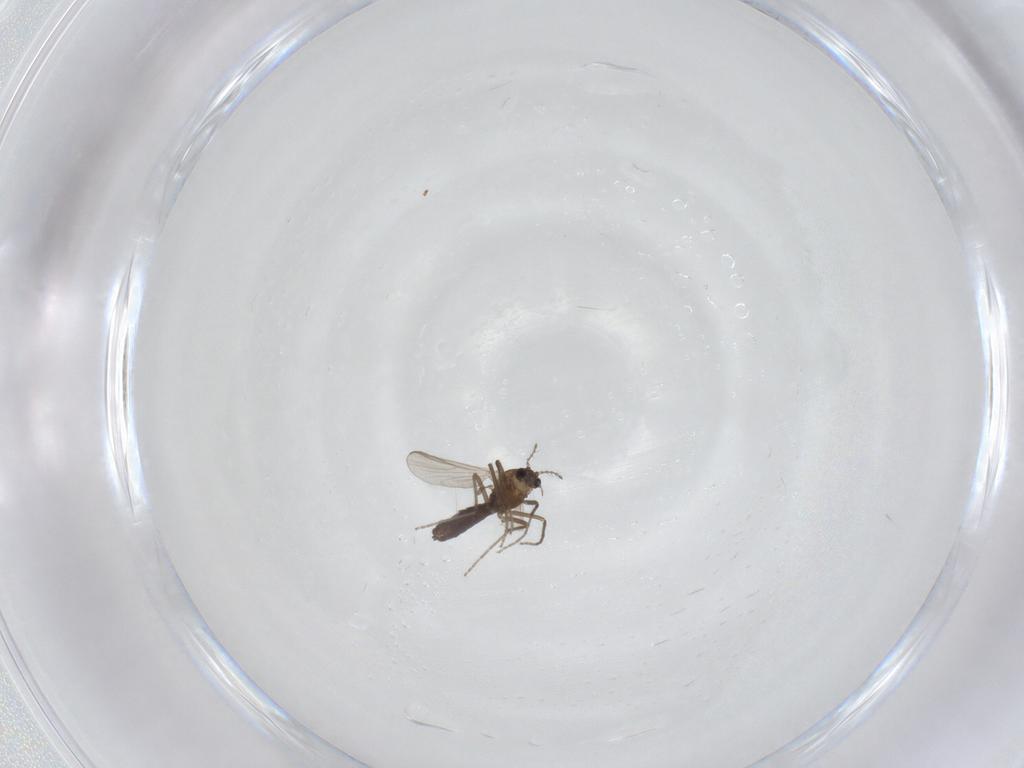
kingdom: Animalia
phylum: Arthropoda
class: Insecta
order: Diptera
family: Chironomidae
